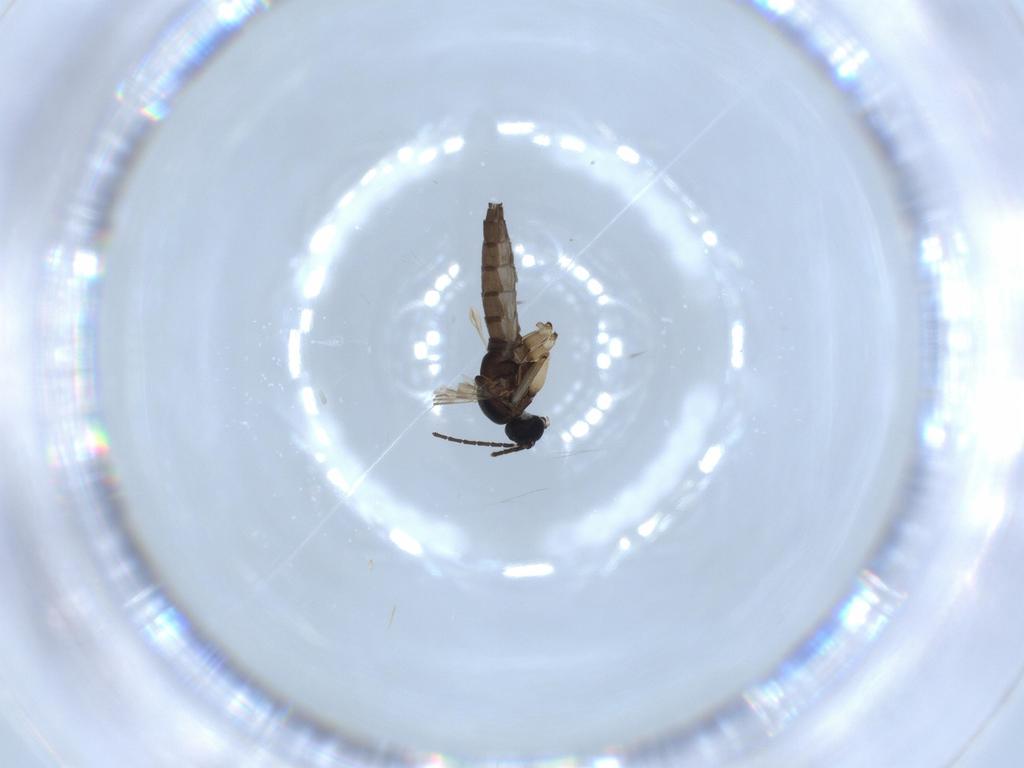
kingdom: Animalia
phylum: Arthropoda
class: Insecta
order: Diptera
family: Sciaridae
